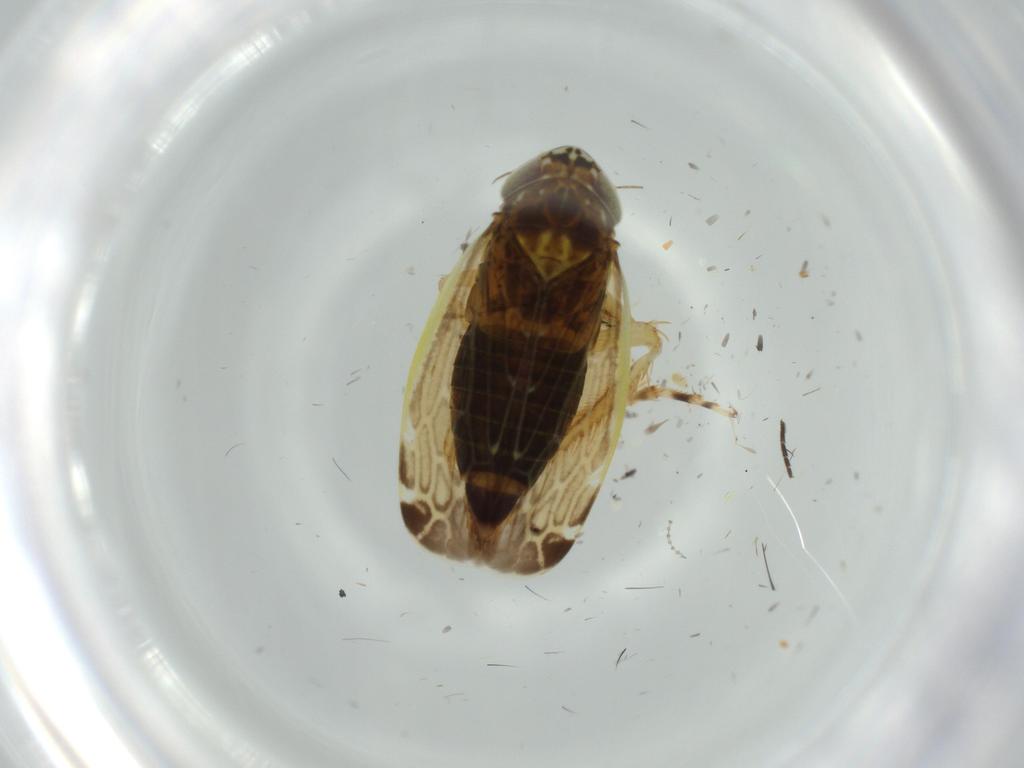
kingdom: Animalia
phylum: Arthropoda
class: Insecta
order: Hemiptera
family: Cicadellidae
